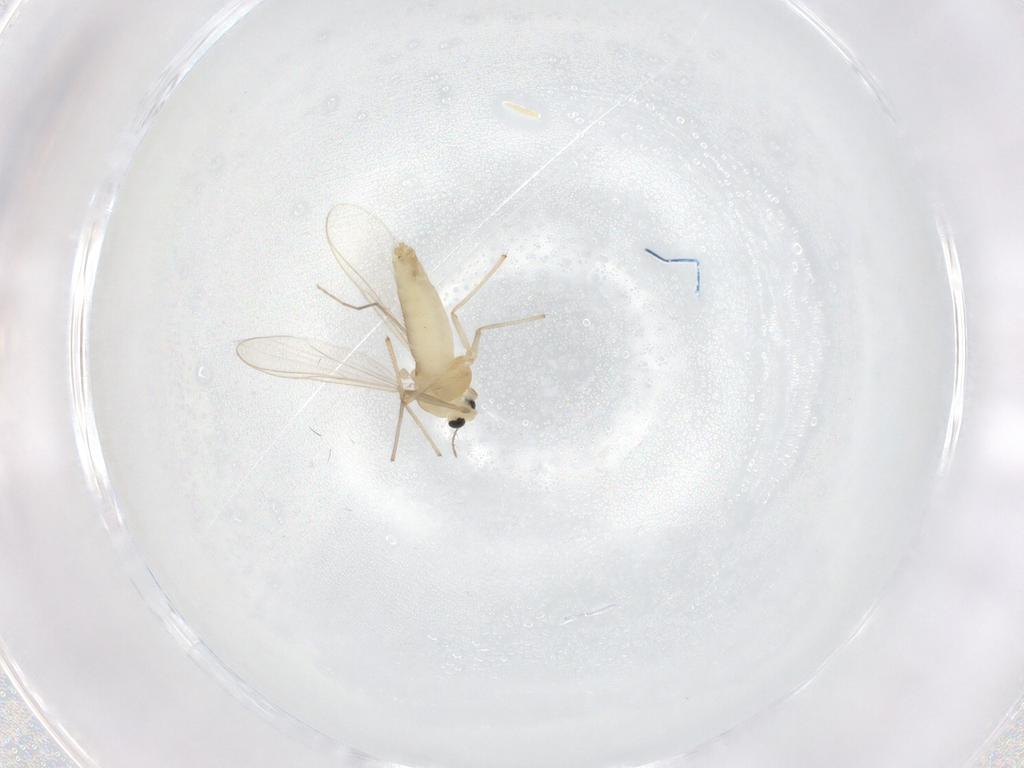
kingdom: Animalia
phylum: Arthropoda
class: Insecta
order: Diptera
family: Chironomidae
